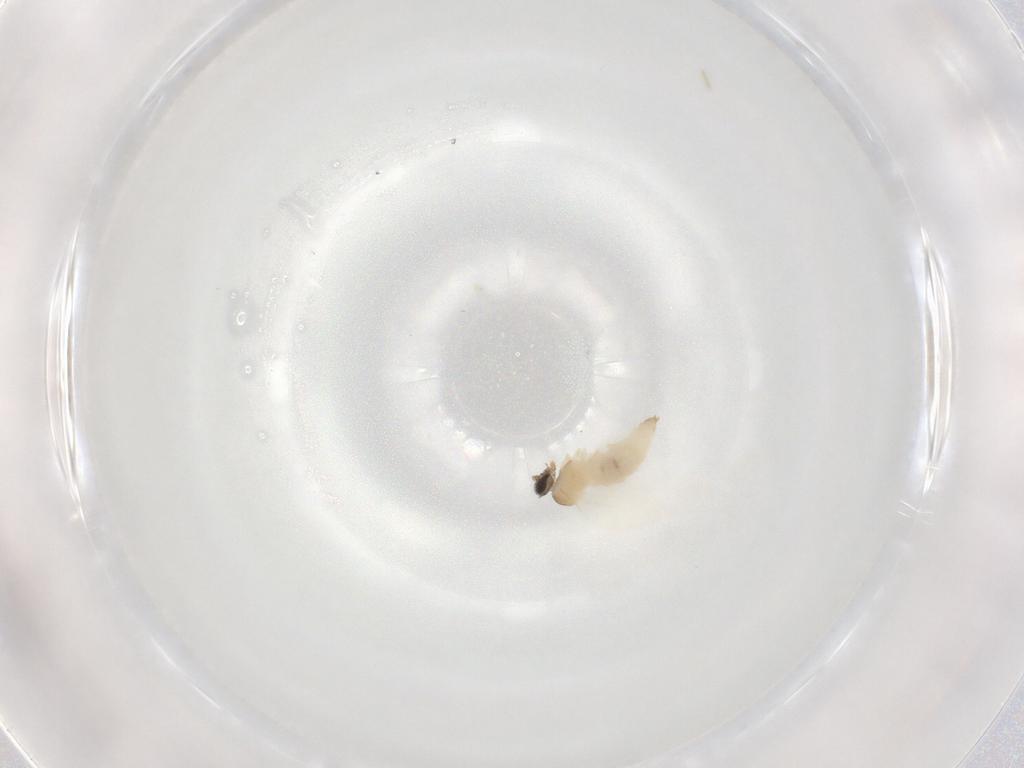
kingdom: Animalia
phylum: Arthropoda
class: Insecta
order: Diptera
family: Cecidomyiidae
